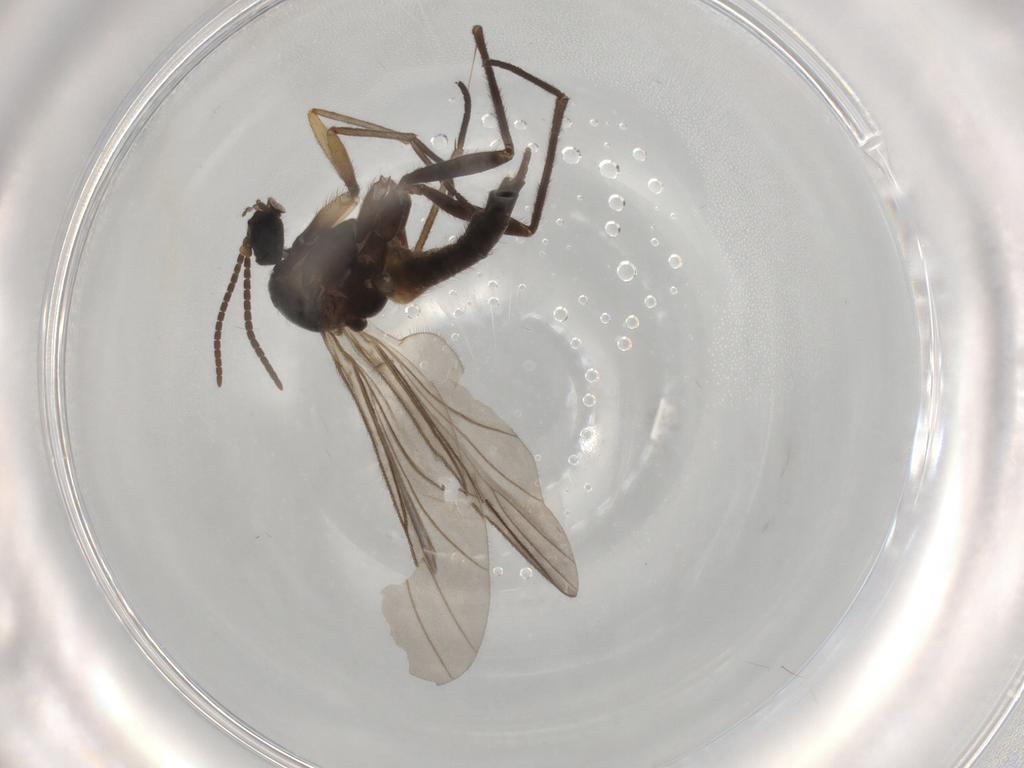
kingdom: Animalia
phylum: Arthropoda
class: Insecta
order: Diptera
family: Sciaridae
